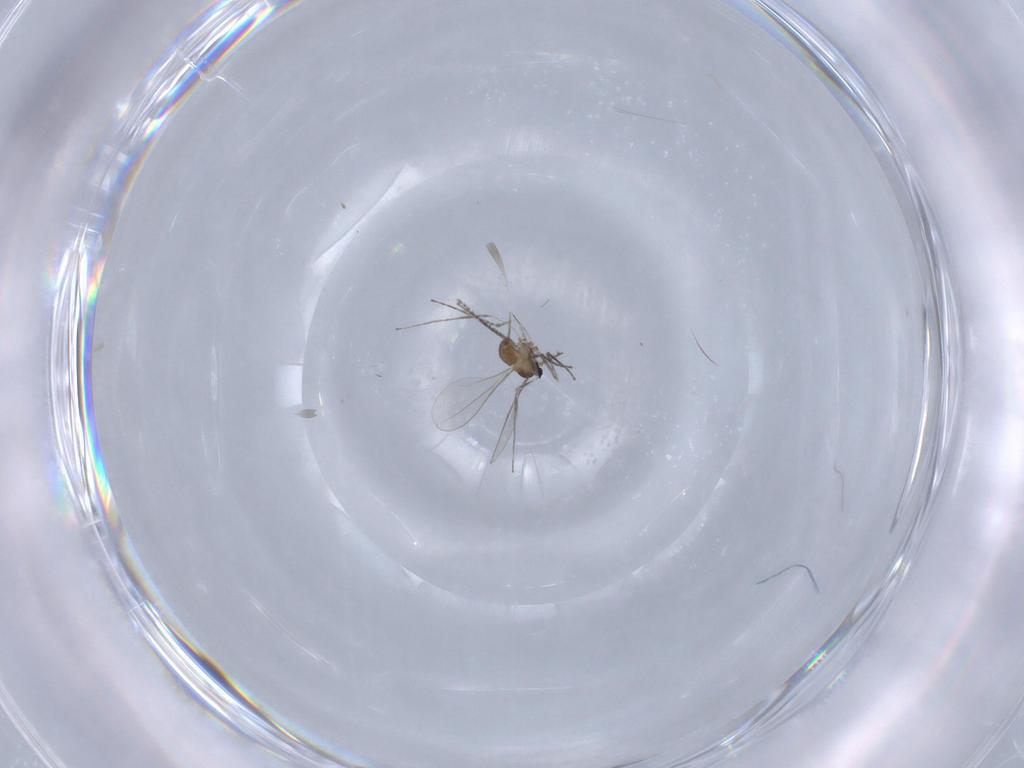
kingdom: Animalia
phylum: Arthropoda
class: Insecta
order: Diptera
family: Cecidomyiidae
